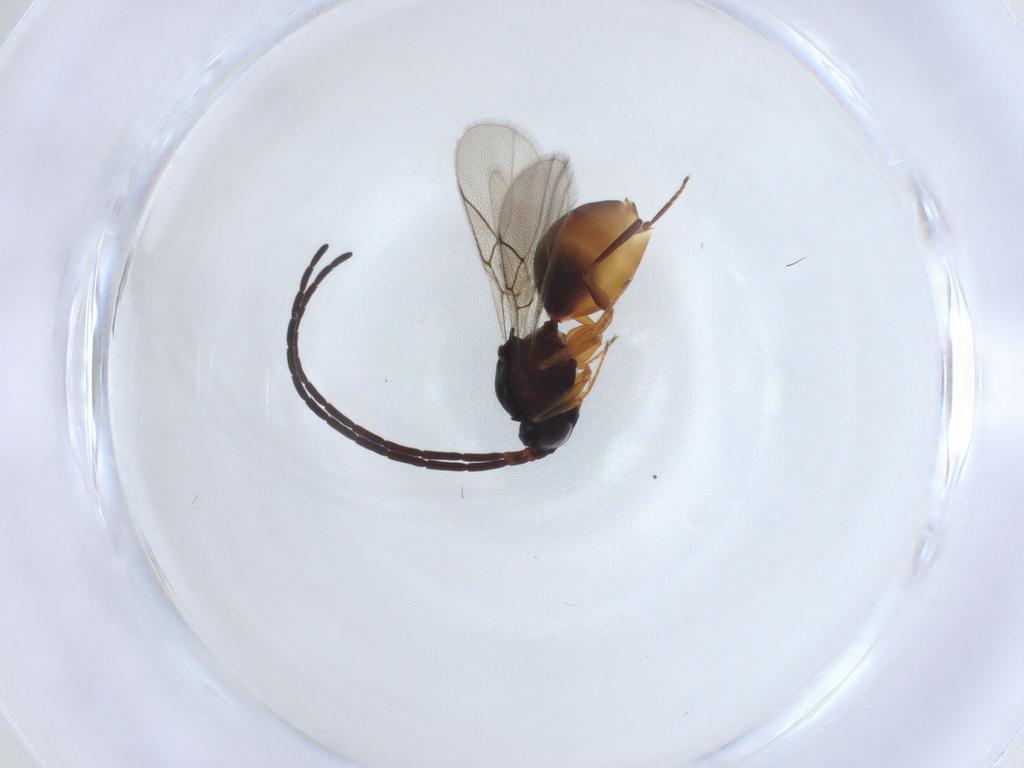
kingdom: Animalia
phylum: Arthropoda
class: Insecta
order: Hymenoptera
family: Figitidae
